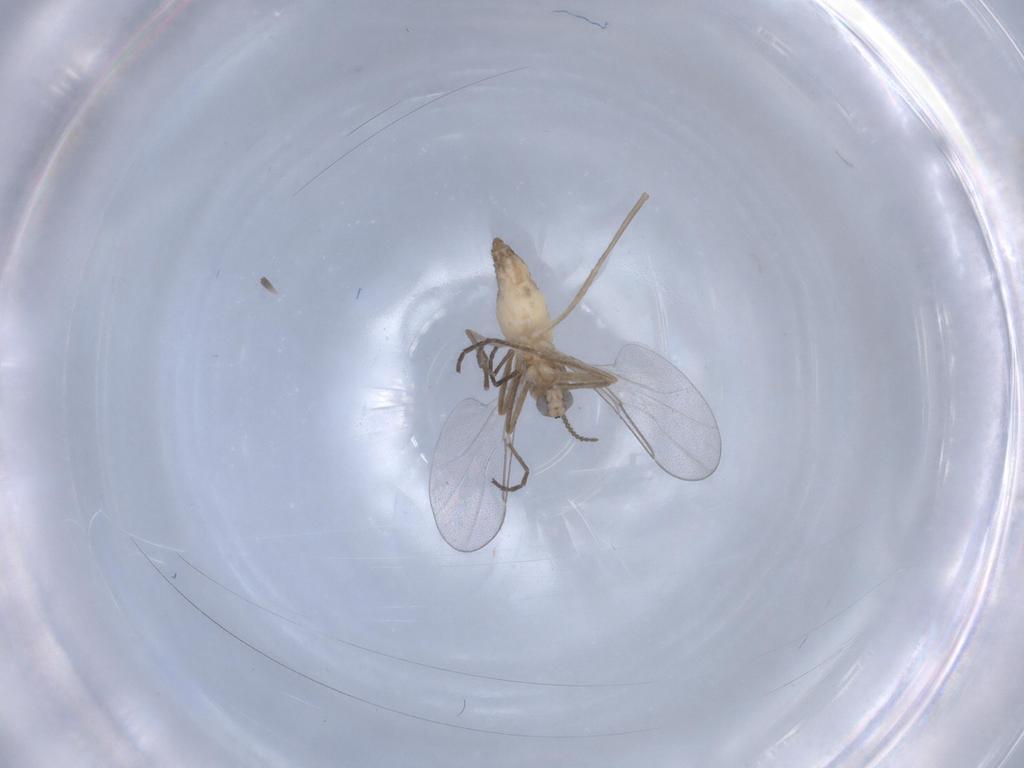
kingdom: Animalia
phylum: Arthropoda
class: Insecta
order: Diptera
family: Cecidomyiidae
